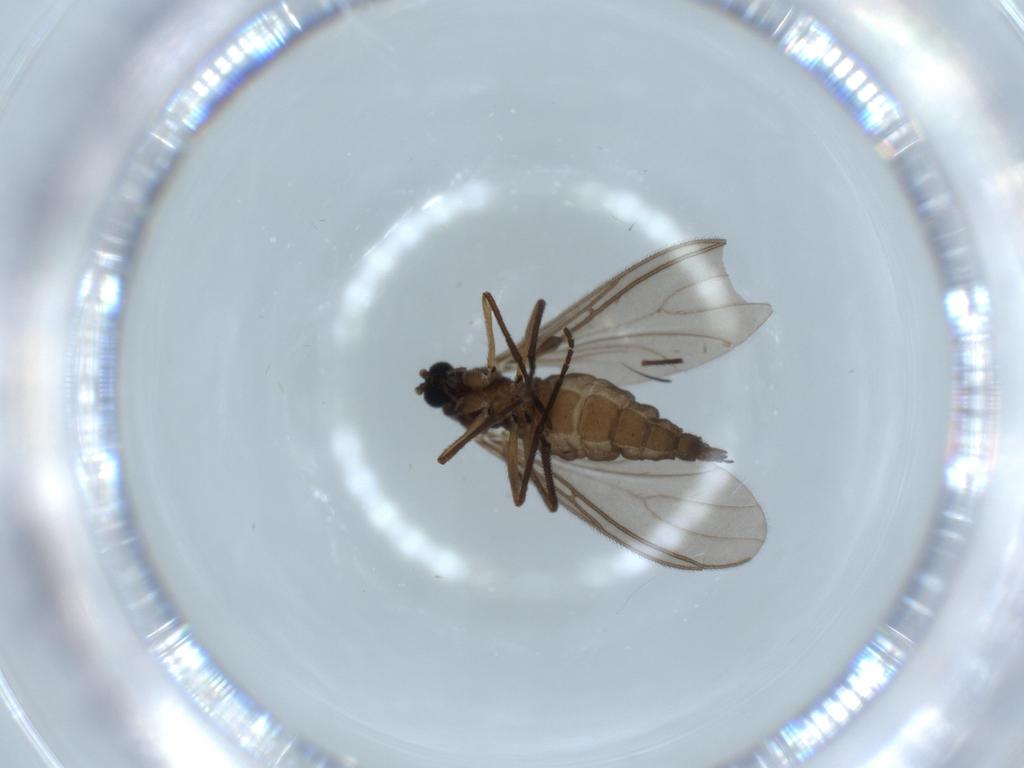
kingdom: Animalia
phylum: Arthropoda
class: Insecta
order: Diptera
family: Sciaridae
